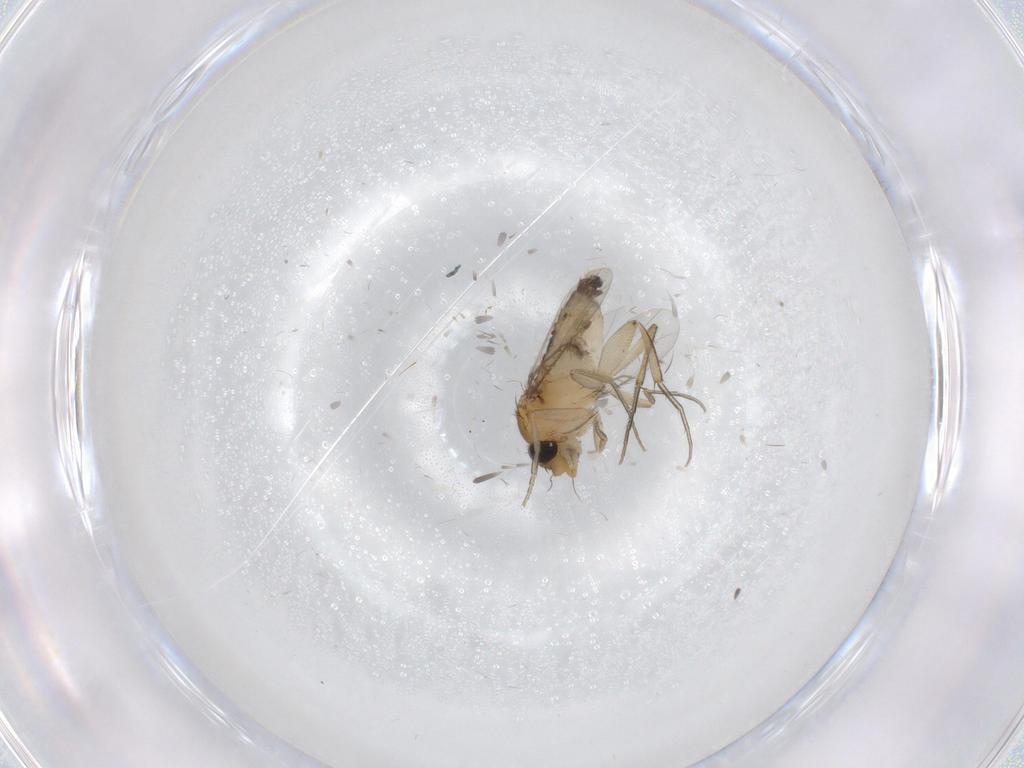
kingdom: Animalia
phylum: Arthropoda
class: Insecta
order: Diptera
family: Phoridae
